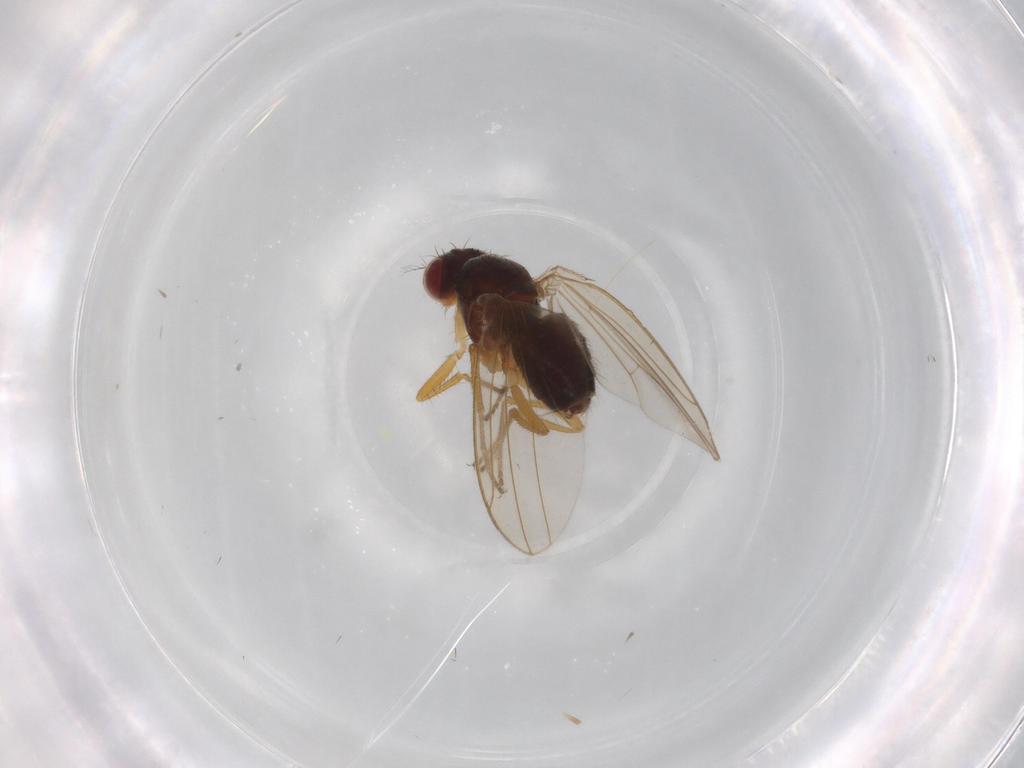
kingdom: Animalia
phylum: Arthropoda
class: Insecta
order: Diptera
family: Drosophilidae
